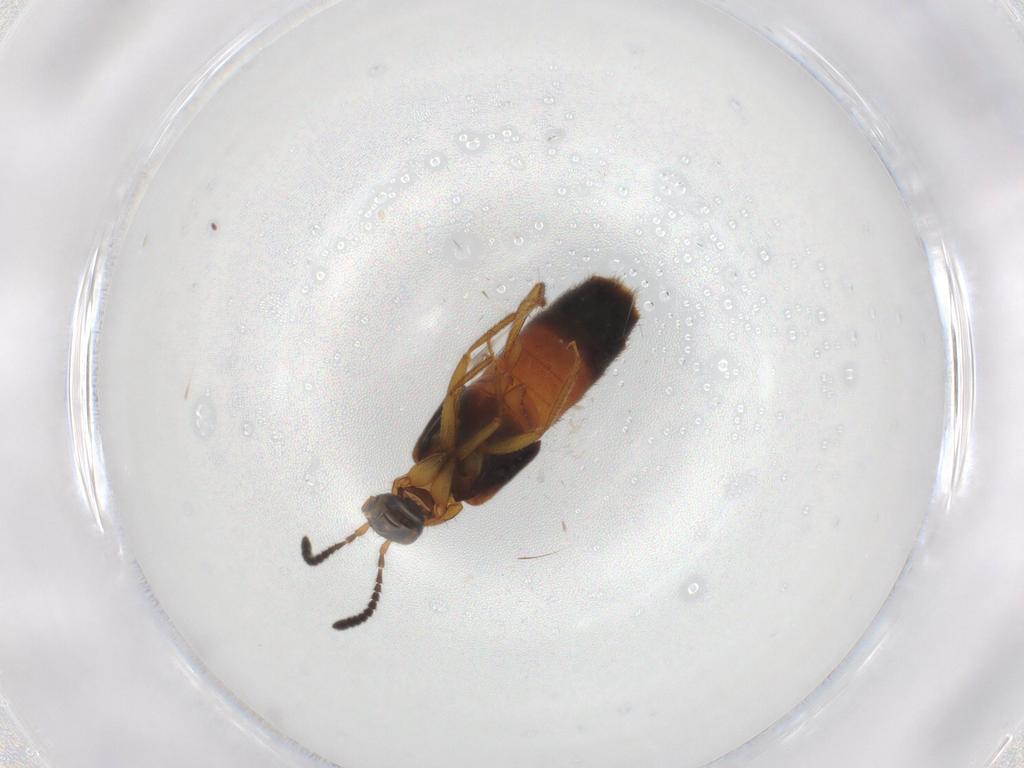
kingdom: Animalia
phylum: Arthropoda
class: Insecta
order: Coleoptera
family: Staphylinidae
